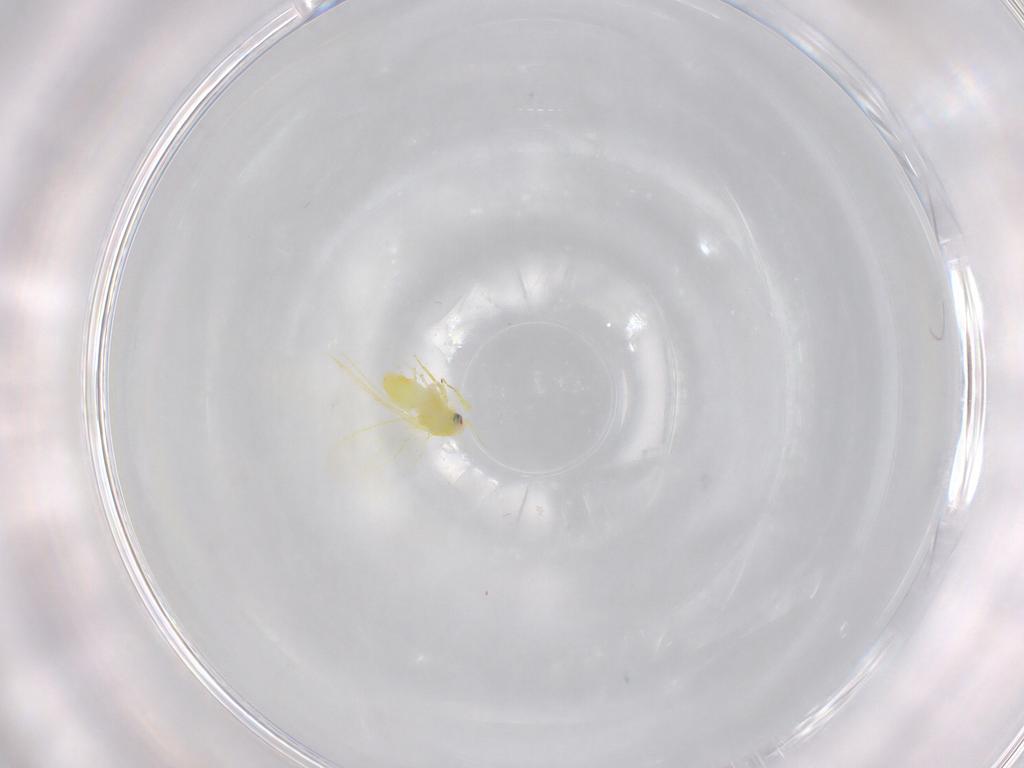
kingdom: Animalia
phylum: Arthropoda
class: Insecta
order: Hemiptera
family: Aleyrodidae
